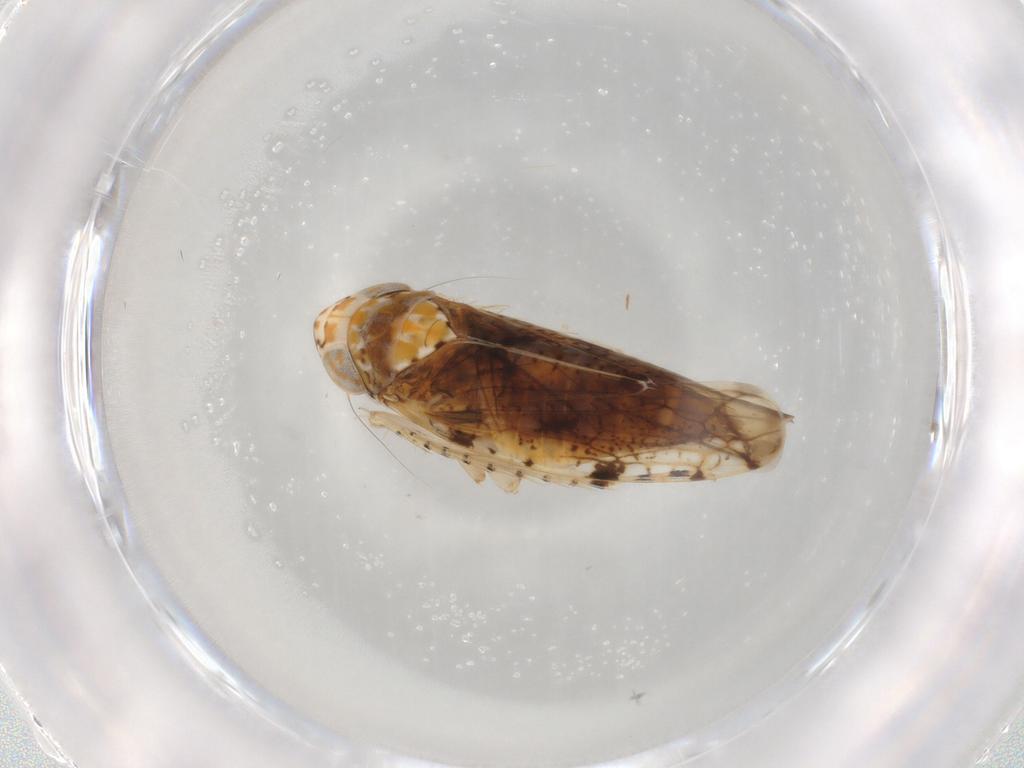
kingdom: Animalia
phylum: Arthropoda
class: Insecta
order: Hemiptera
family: Cicadellidae
